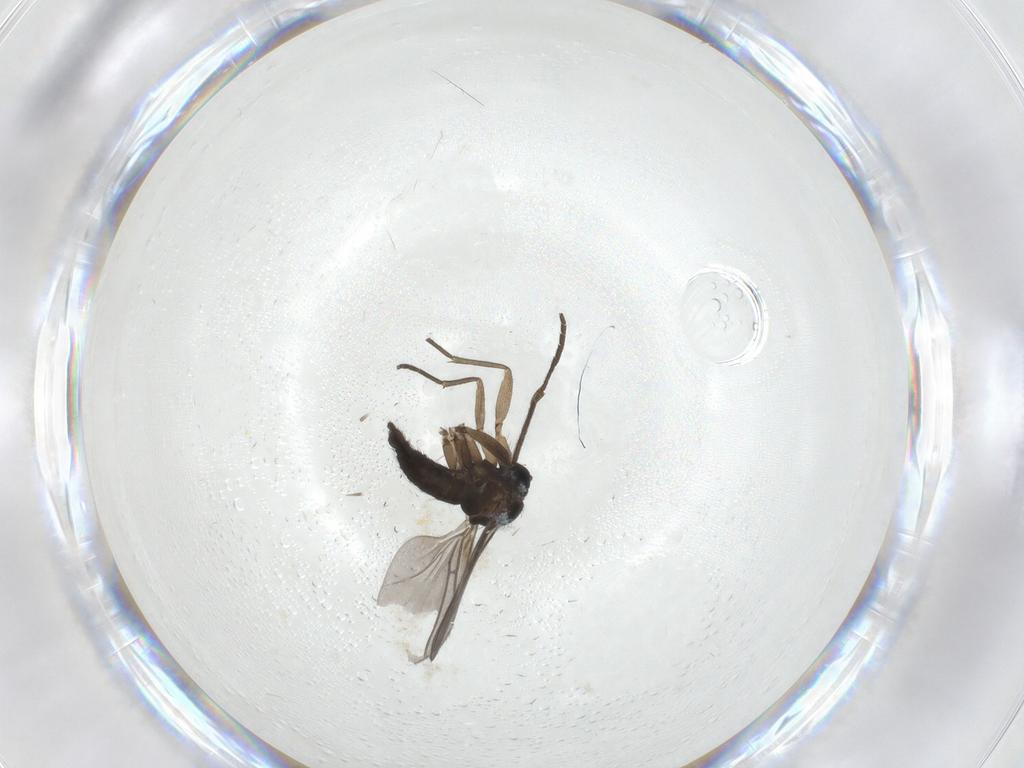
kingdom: Animalia
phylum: Arthropoda
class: Insecta
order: Diptera
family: Sciaridae
